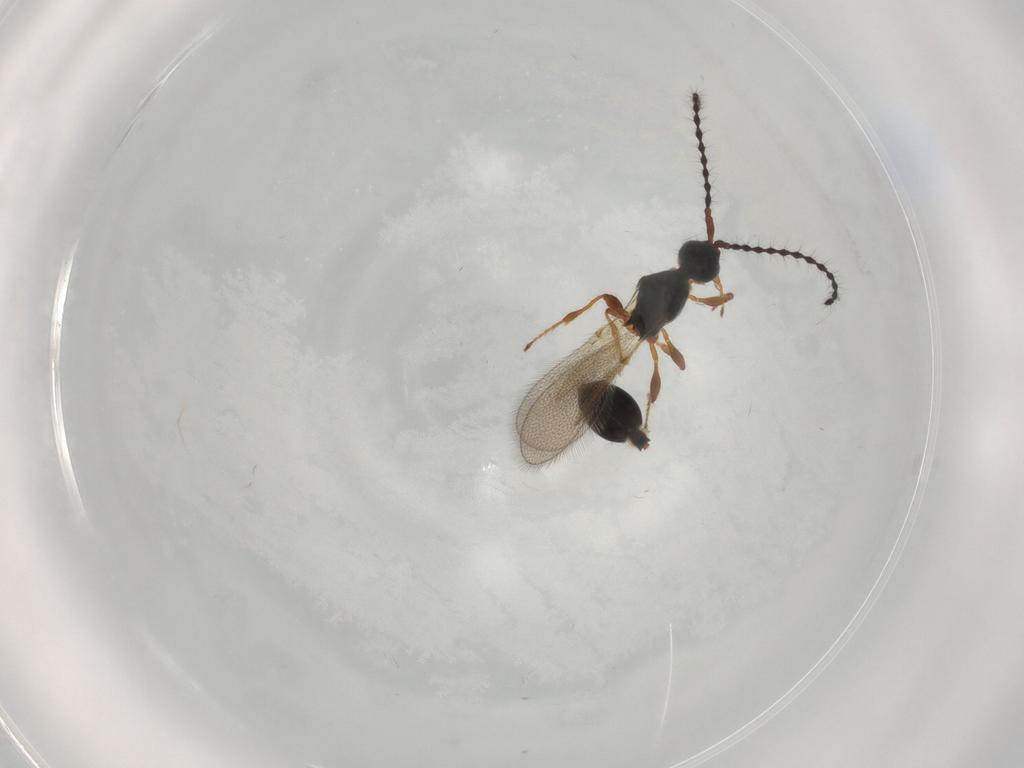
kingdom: Animalia
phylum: Arthropoda
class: Insecta
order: Hymenoptera
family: Diapriidae
